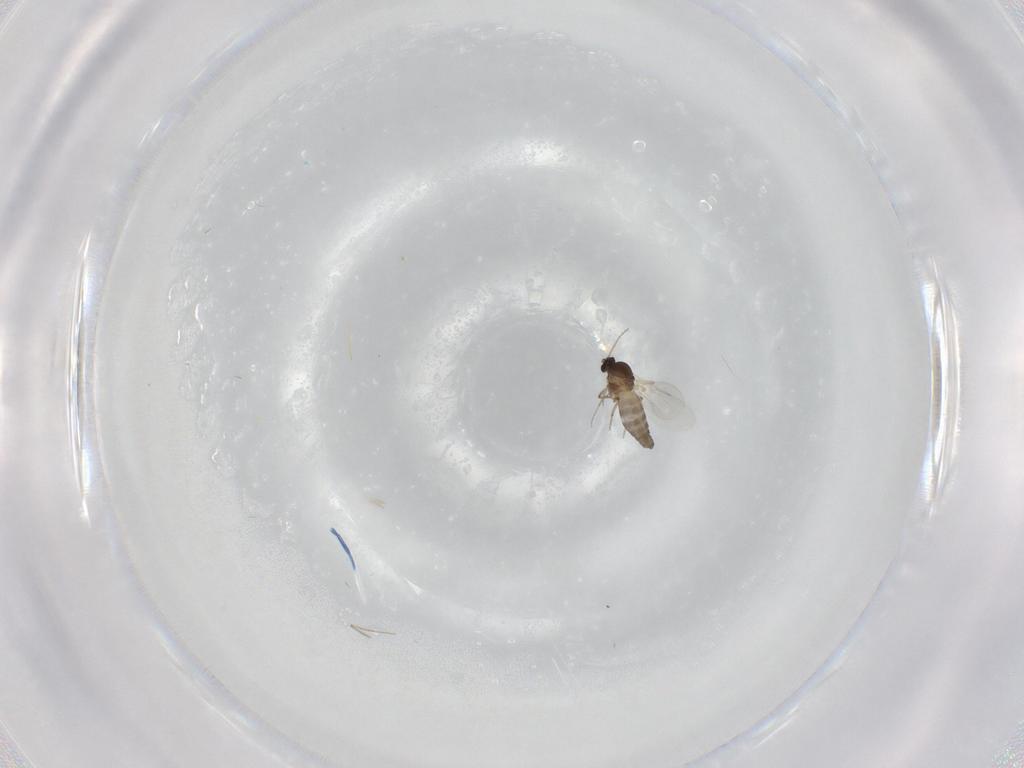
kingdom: Animalia
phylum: Arthropoda
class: Insecta
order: Diptera
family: Ceratopogonidae
